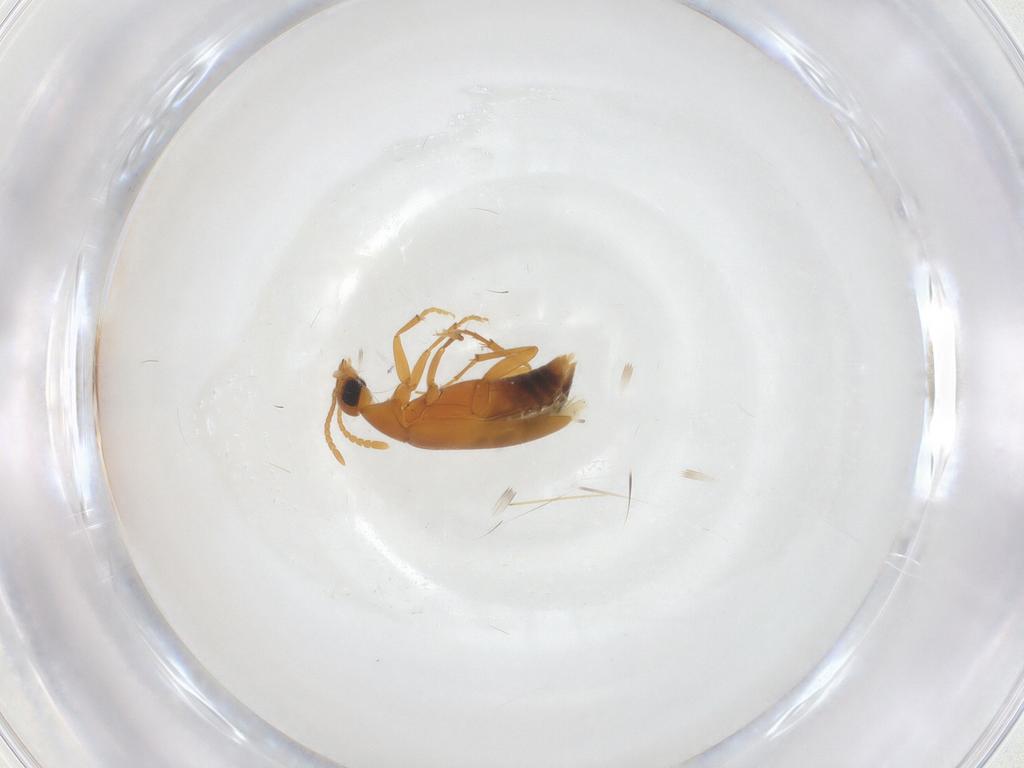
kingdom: Animalia
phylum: Arthropoda
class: Insecta
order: Coleoptera
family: Scraptiidae
